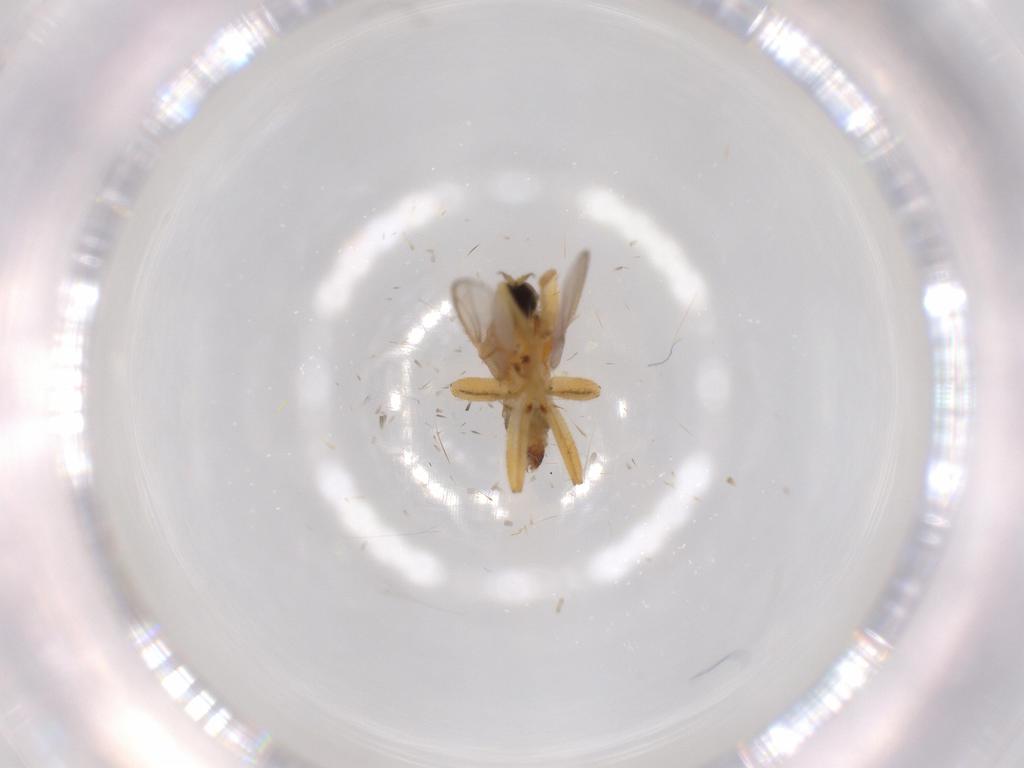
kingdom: Animalia
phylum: Arthropoda
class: Insecta
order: Diptera
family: Hybotidae
